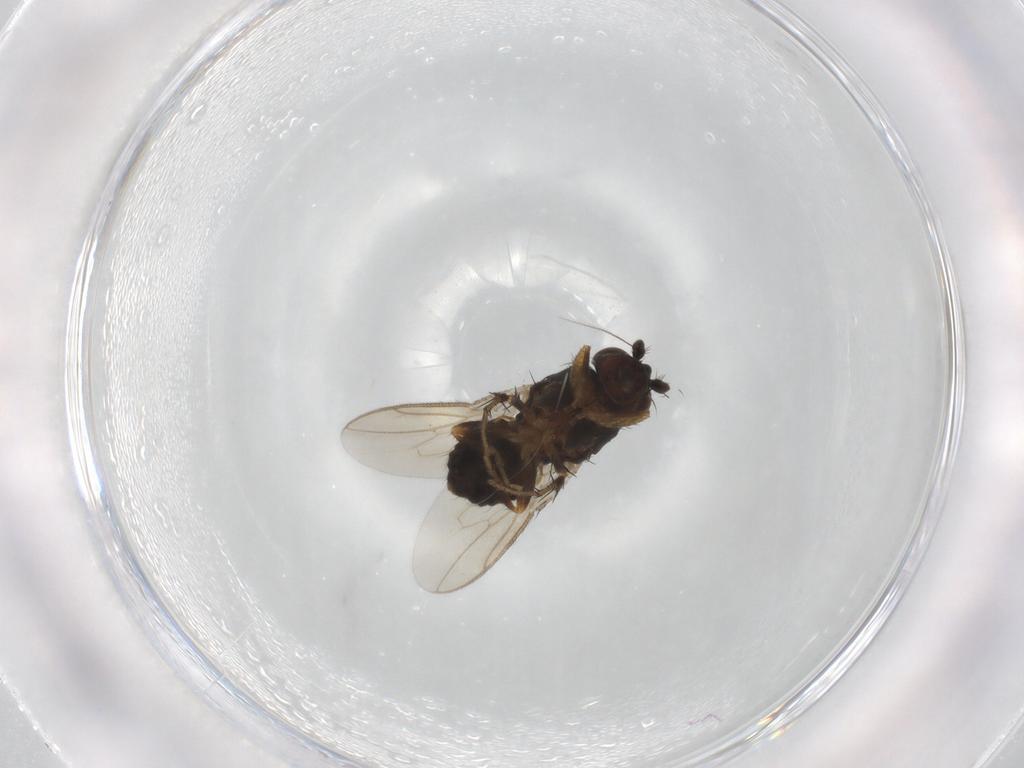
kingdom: Animalia
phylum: Arthropoda
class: Insecta
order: Diptera
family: Sphaeroceridae
